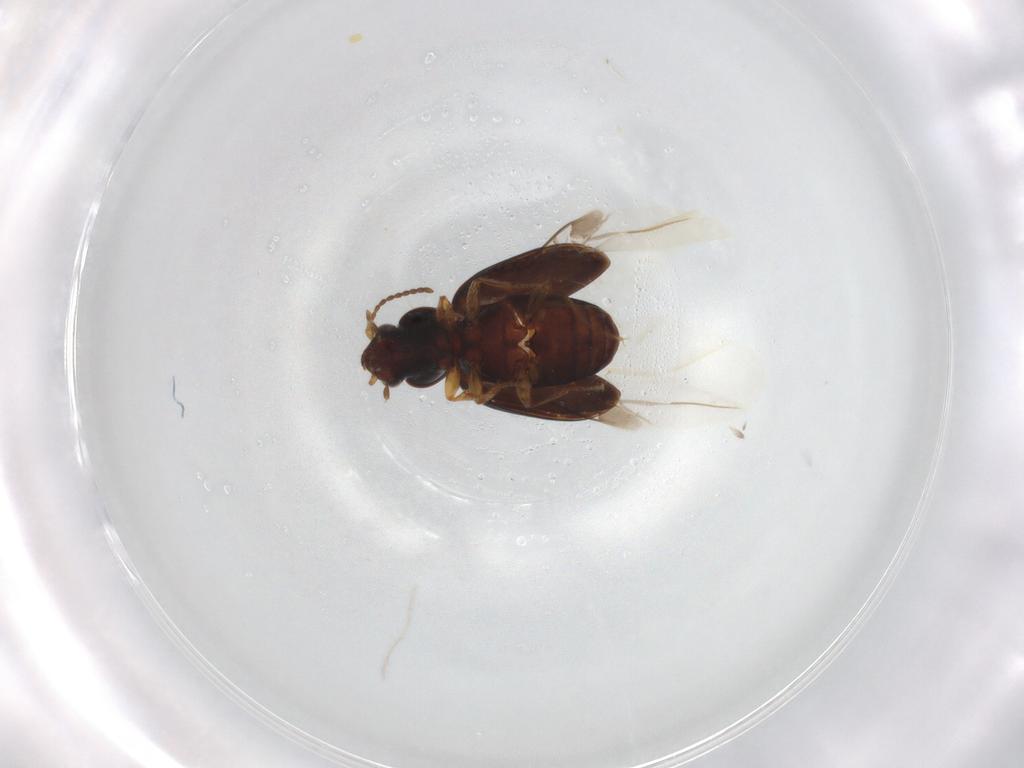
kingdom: Animalia
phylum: Arthropoda
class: Insecta
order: Coleoptera
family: Carabidae
